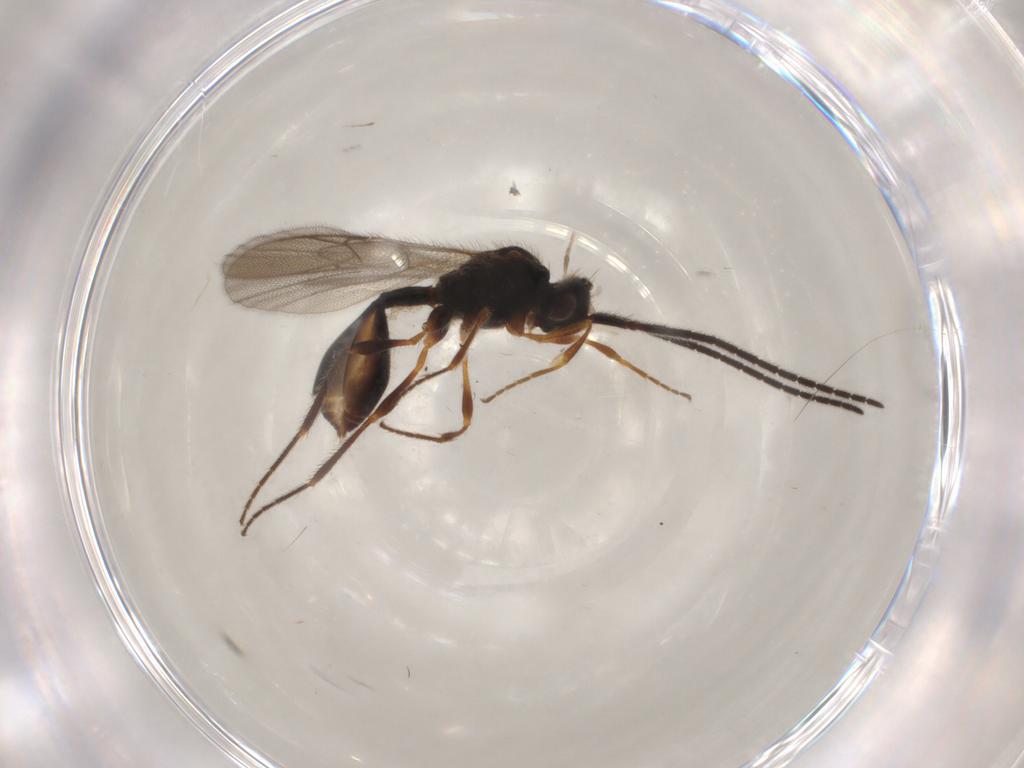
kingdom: Animalia
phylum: Arthropoda
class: Insecta
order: Hymenoptera
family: Diapriidae
